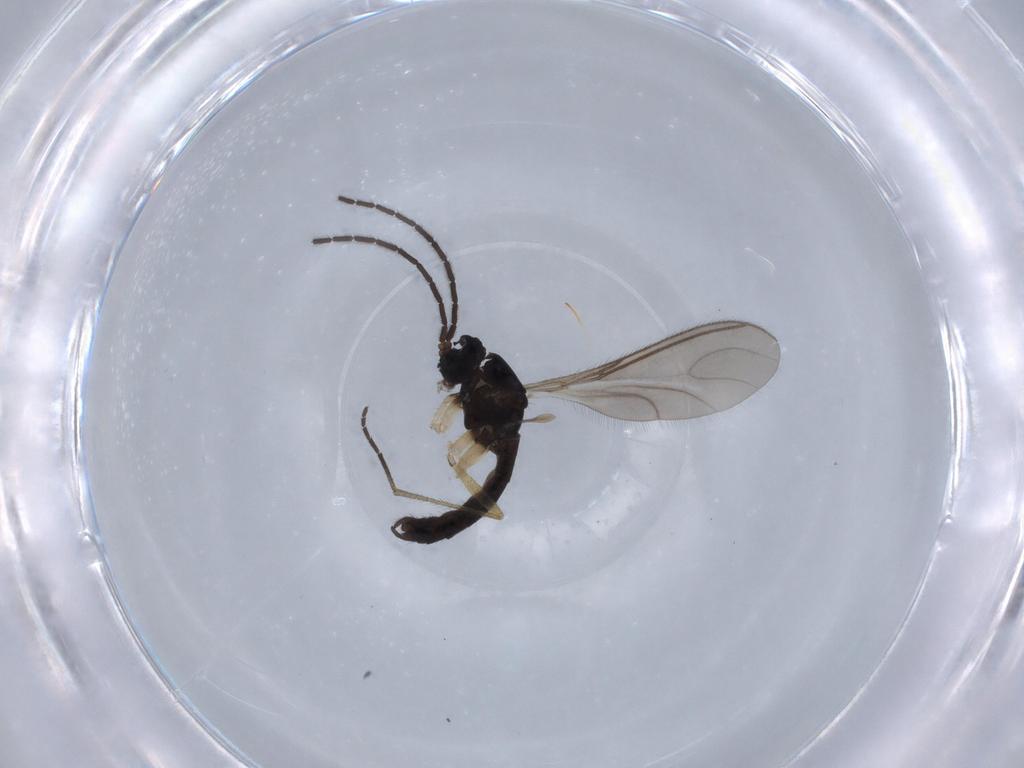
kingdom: Animalia
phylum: Arthropoda
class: Insecta
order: Diptera
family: Sciaridae
